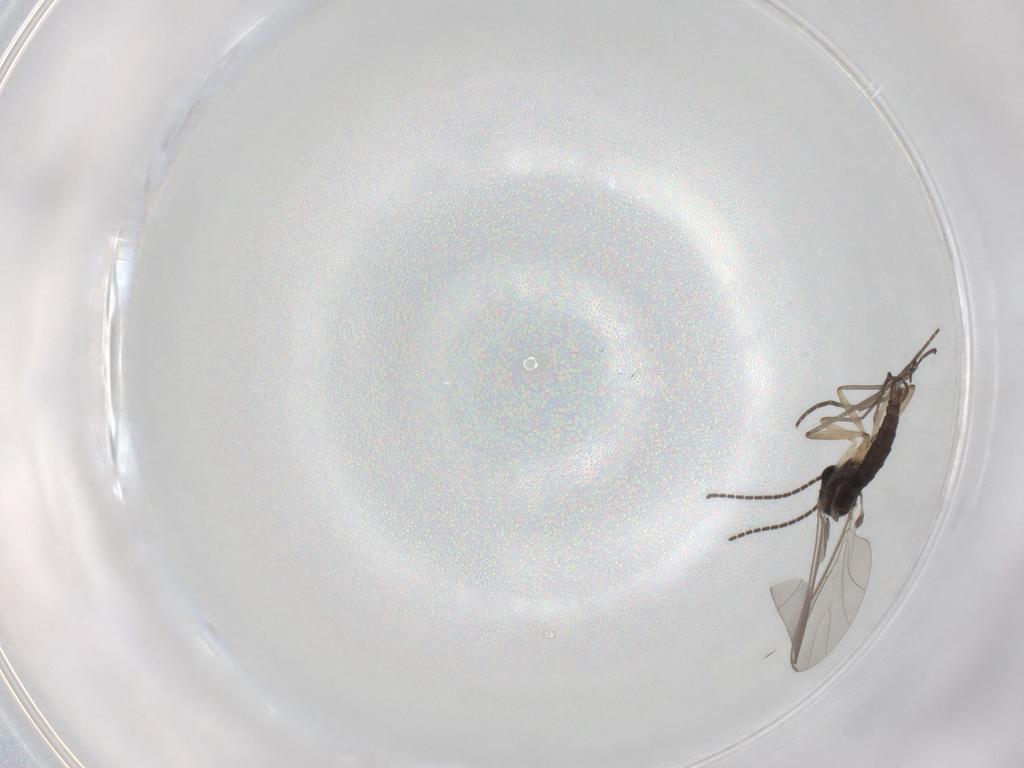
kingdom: Animalia
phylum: Arthropoda
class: Insecta
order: Diptera
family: Sciaridae
